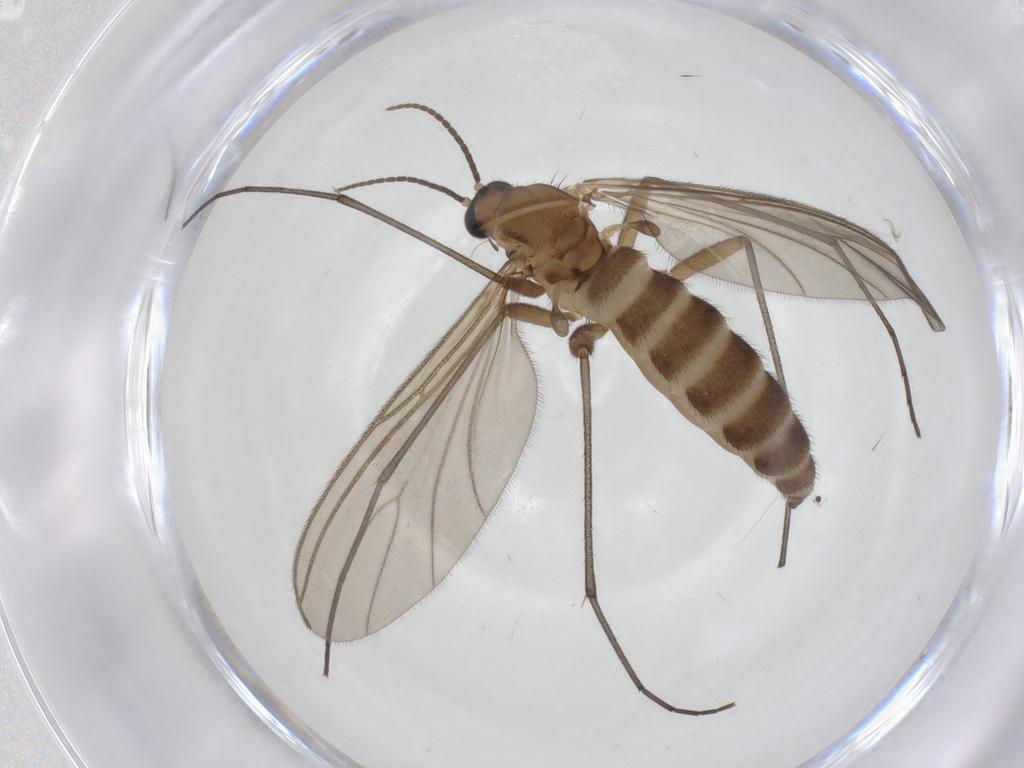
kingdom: Animalia
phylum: Arthropoda
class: Insecta
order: Diptera
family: Sciaridae
